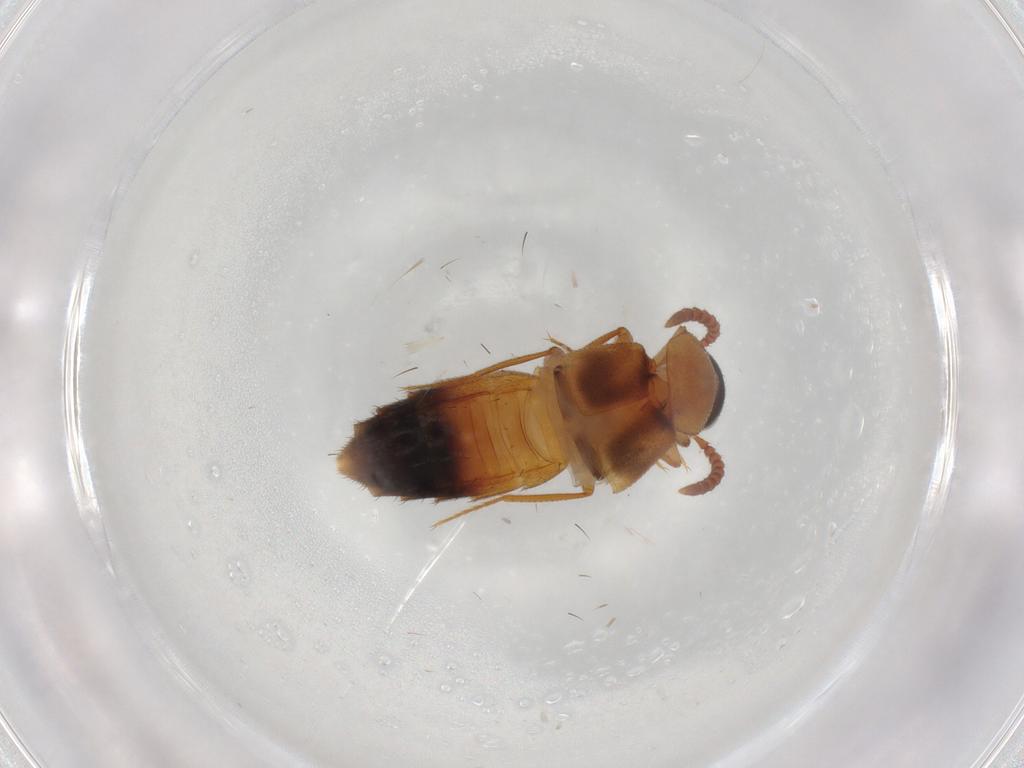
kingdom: Animalia
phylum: Arthropoda
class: Insecta
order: Coleoptera
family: Staphylinidae
